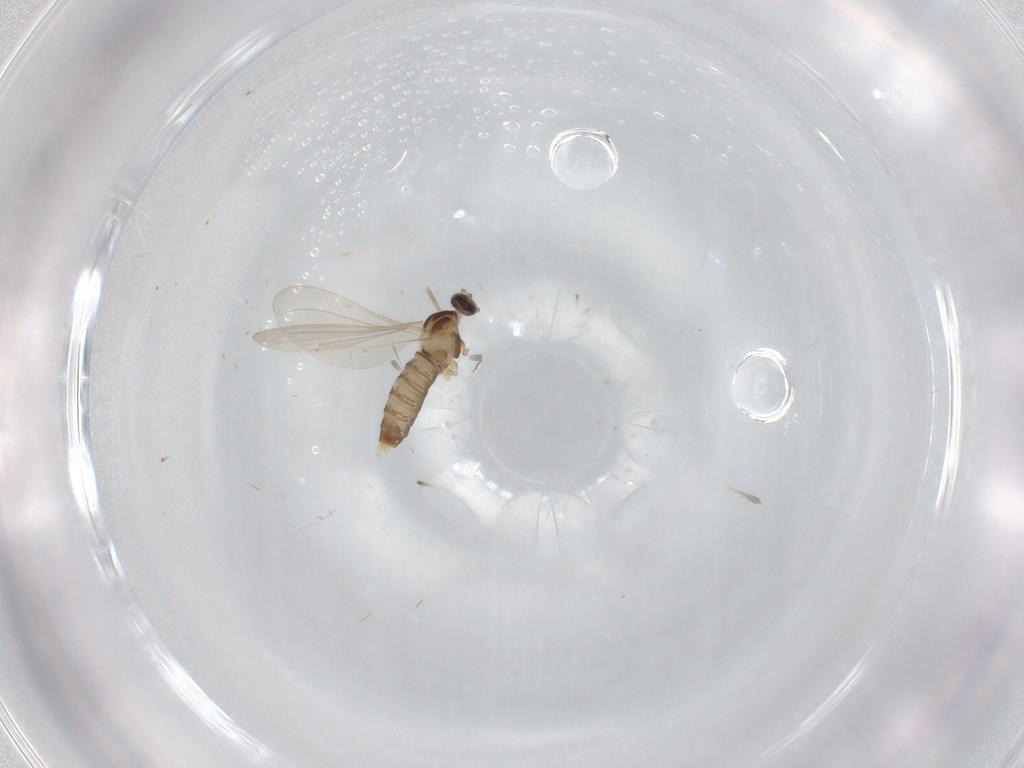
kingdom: Animalia
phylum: Arthropoda
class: Insecta
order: Diptera
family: Cecidomyiidae
